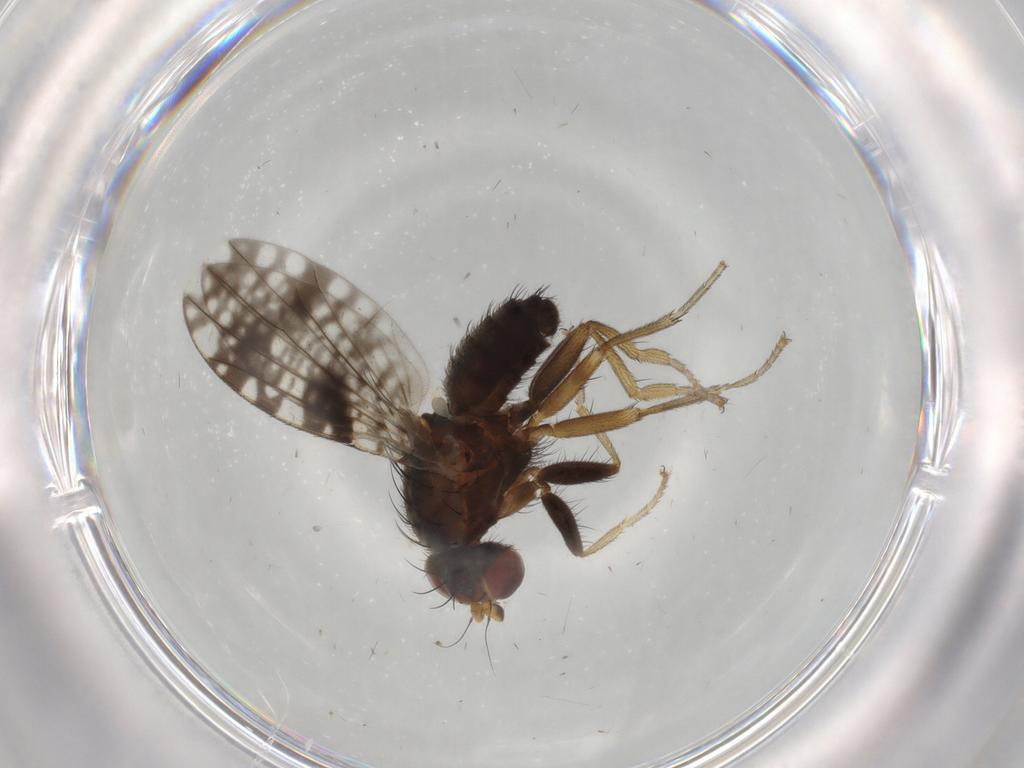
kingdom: Animalia
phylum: Arthropoda
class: Insecta
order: Diptera
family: Tephritidae
